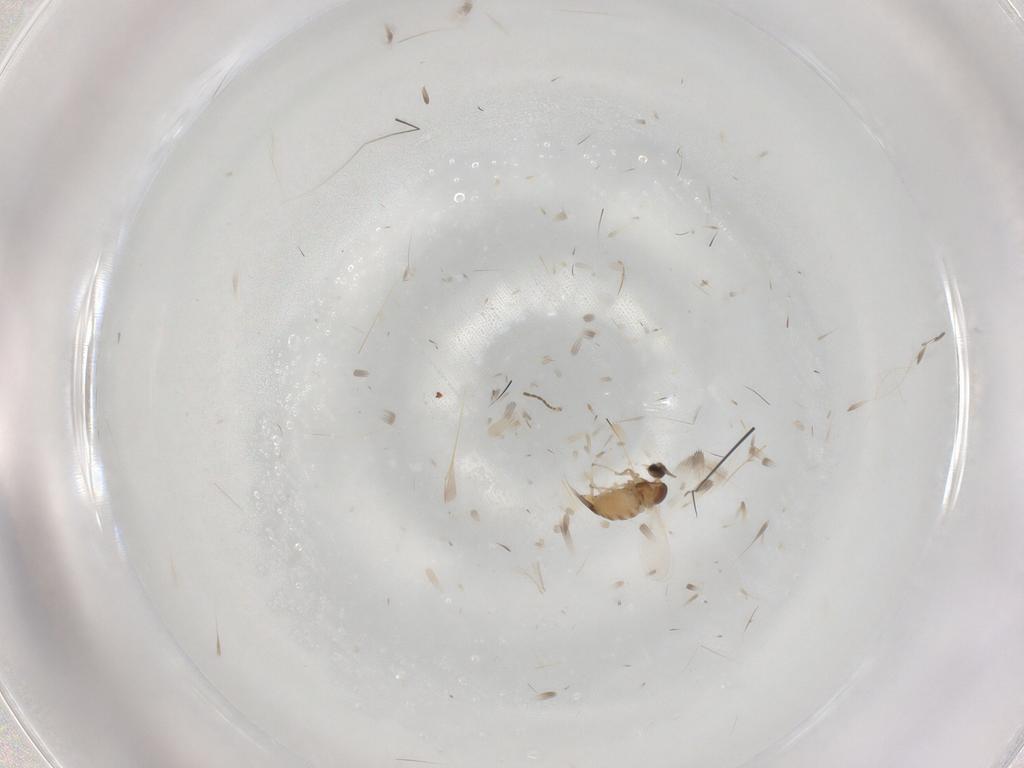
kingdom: Animalia
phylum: Arthropoda
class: Insecta
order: Diptera
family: Cecidomyiidae
